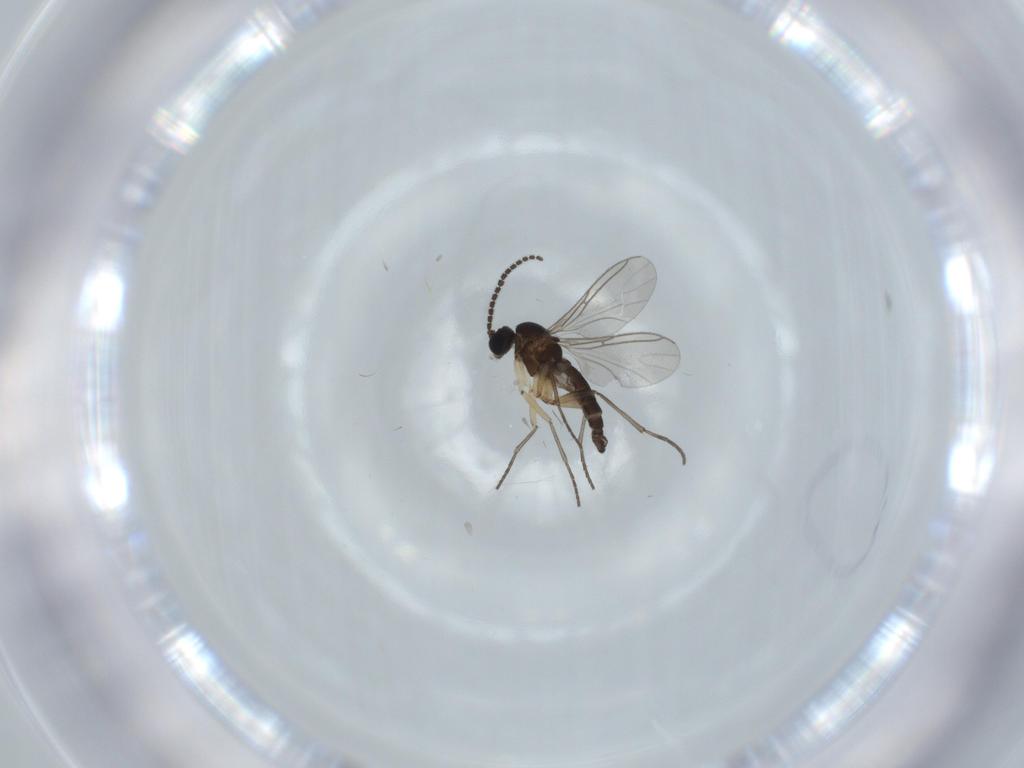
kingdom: Animalia
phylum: Arthropoda
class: Insecta
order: Diptera
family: Sciaridae
